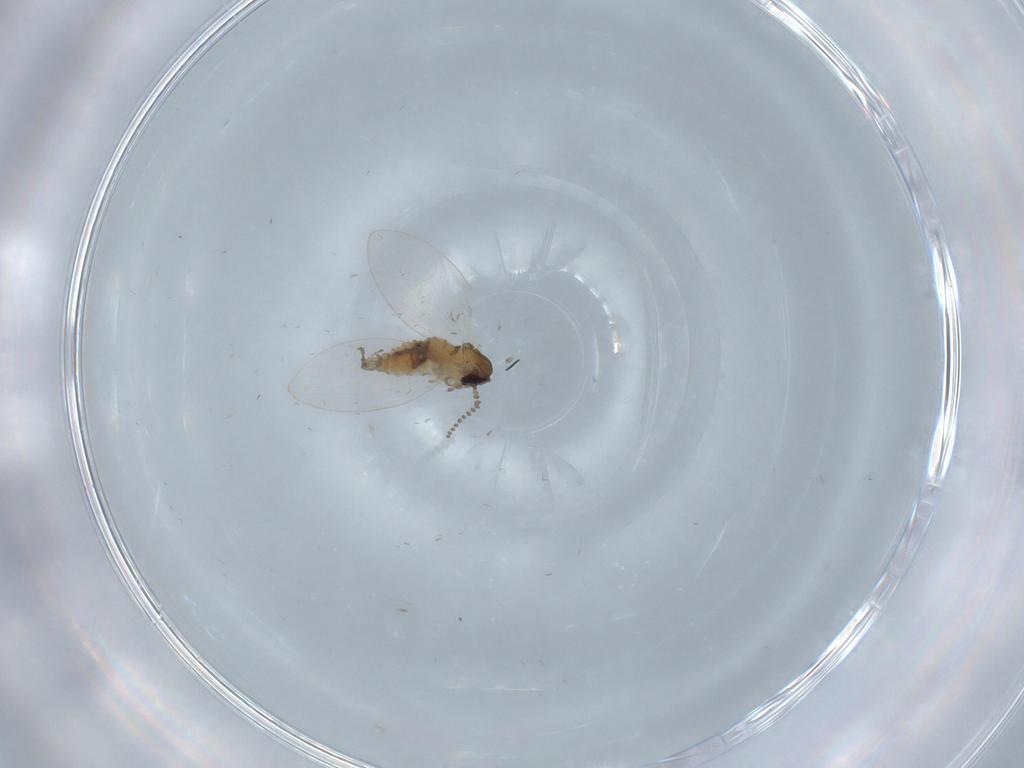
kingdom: Animalia
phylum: Arthropoda
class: Insecta
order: Diptera
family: Psychodidae
